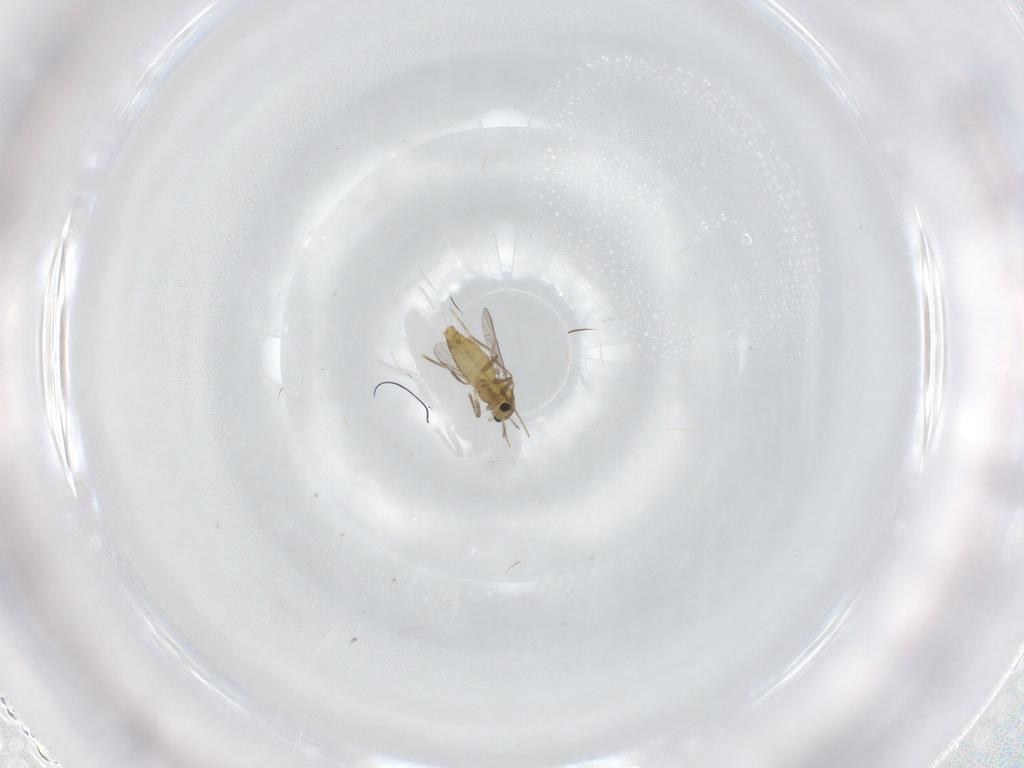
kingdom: Animalia
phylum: Arthropoda
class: Insecta
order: Diptera
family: Chironomidae
